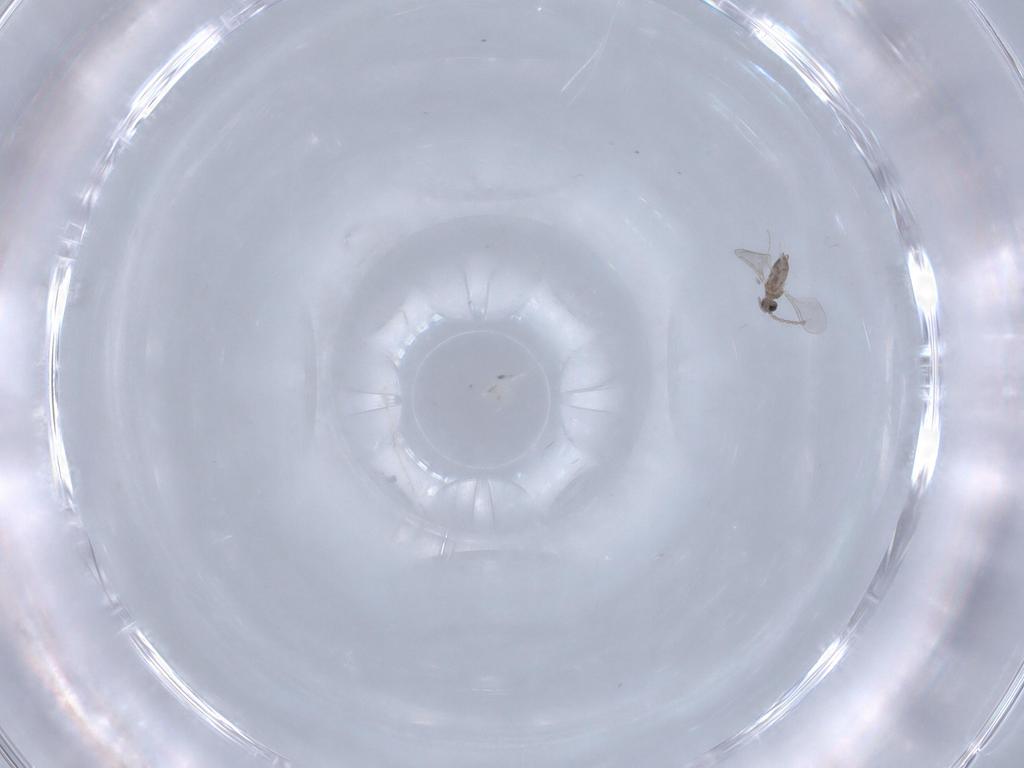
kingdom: Animalia
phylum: Arthropoda
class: Insecta
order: Diptera
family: Cecidomyiidae
